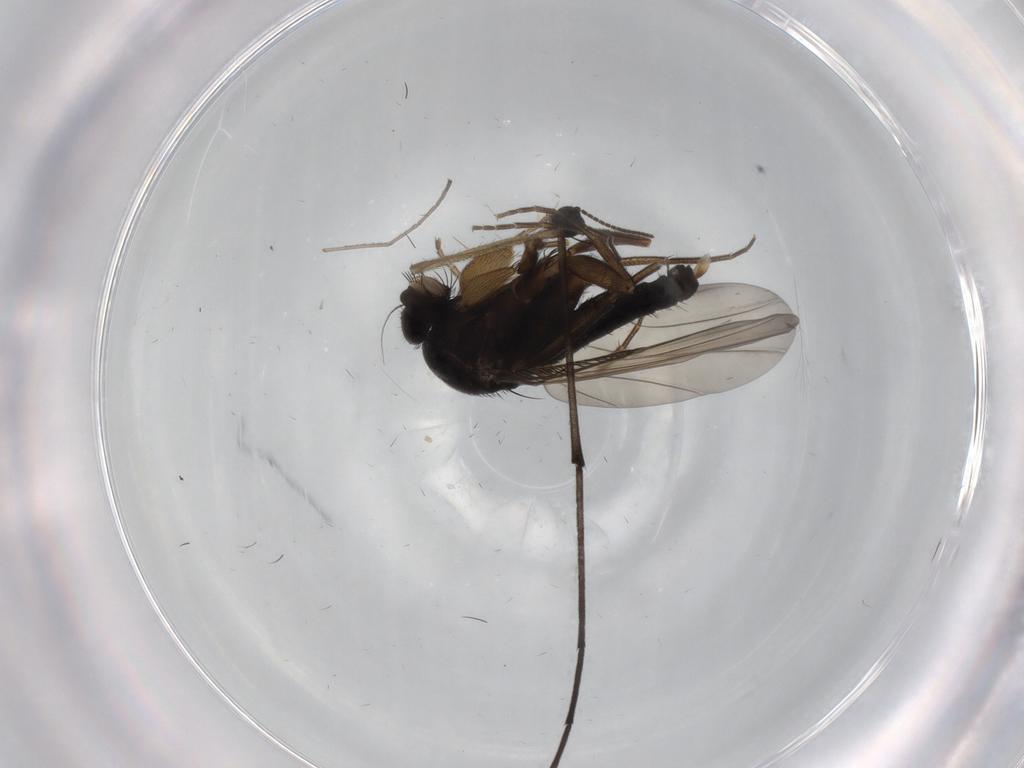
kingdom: Animalia
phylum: Arthropoda
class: Insecta
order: Diptera
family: Phoridae
